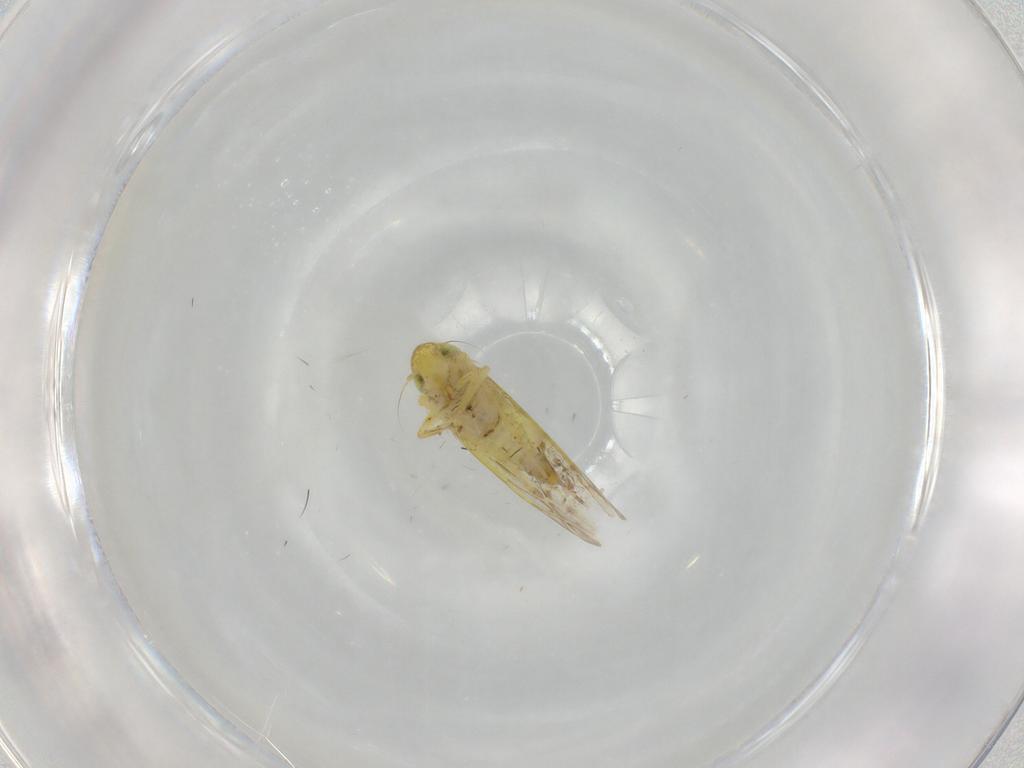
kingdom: Animalia
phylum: Arthropoda
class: Insecta
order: Hemiptera
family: Cicadellidae
